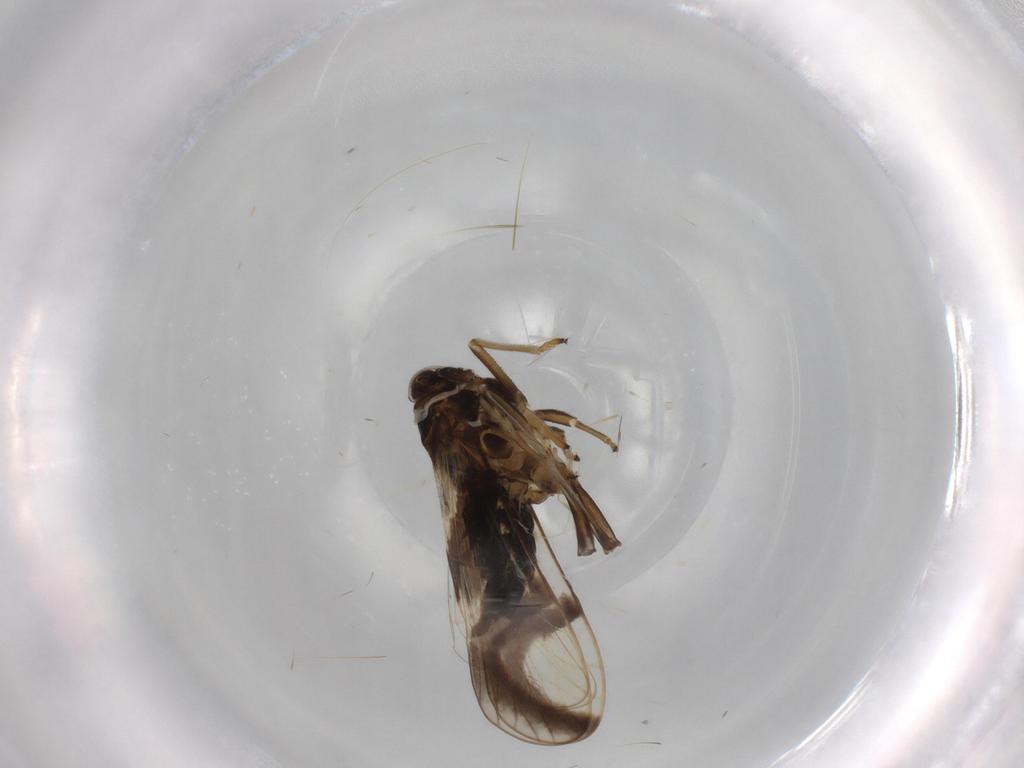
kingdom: Animalia
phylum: Arthropoda
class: Insecta
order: Hemiptera
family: Cicadellidae
